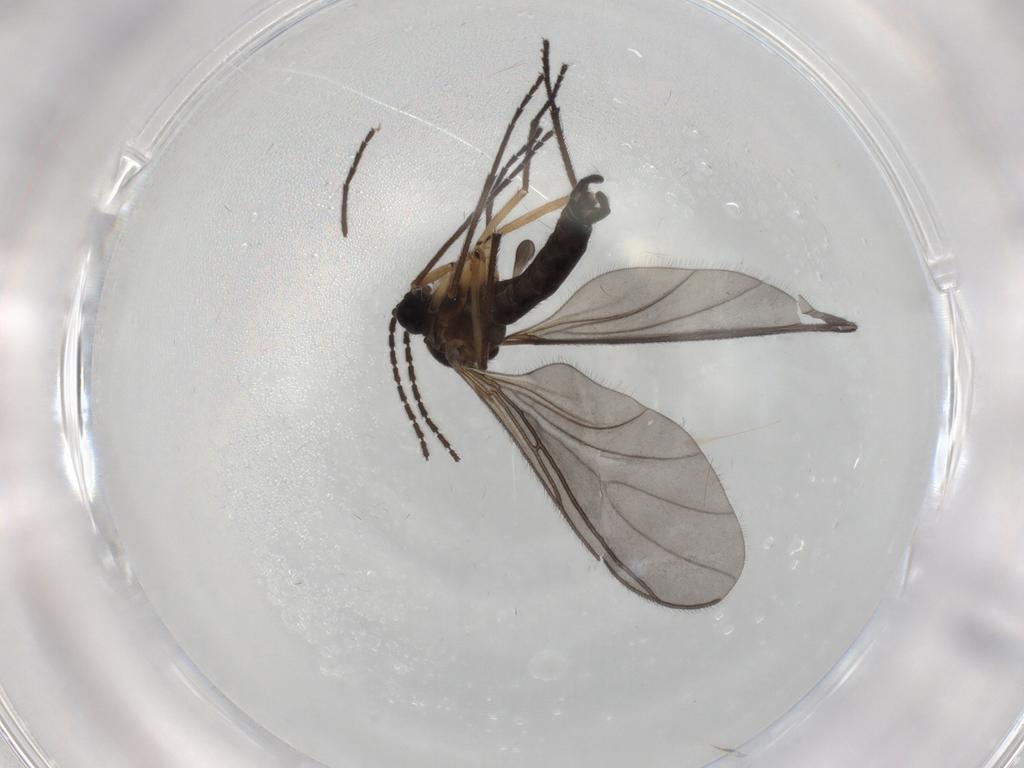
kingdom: Animalia
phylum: Arthropoda
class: Insecta
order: Diptera
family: Sciaridae
